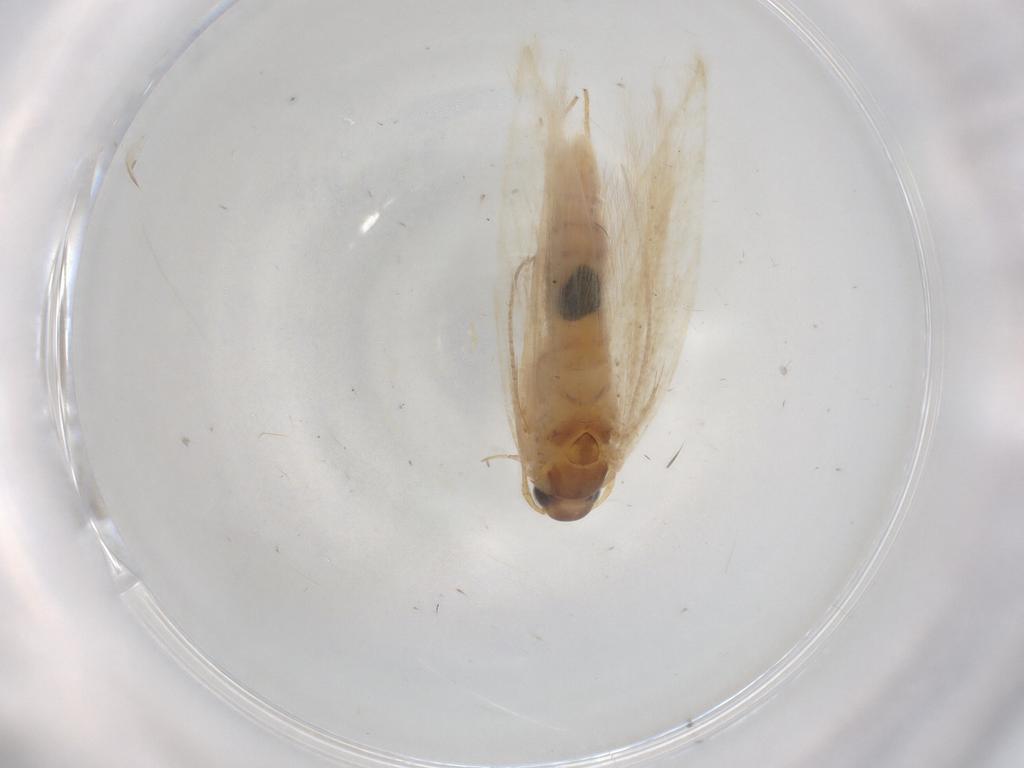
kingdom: Animalia
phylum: Arthropoda
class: Insecta
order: Lepidoptera
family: Gelechiidae
